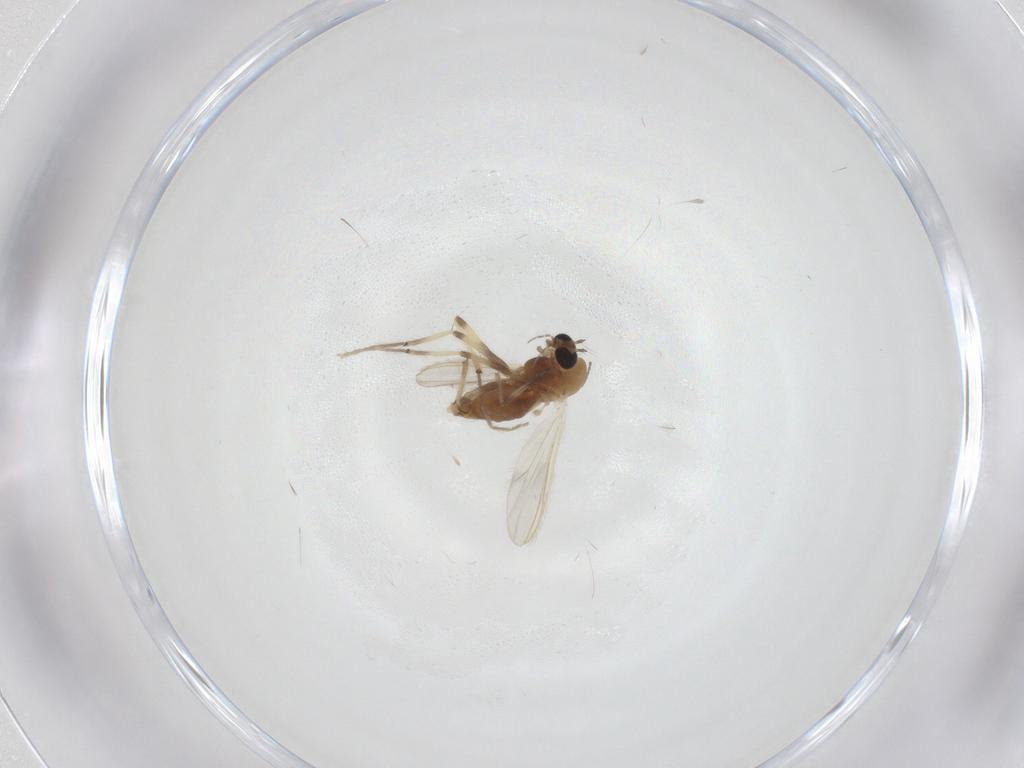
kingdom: Animalia
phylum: Arthropoda
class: Insecta
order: Diptera
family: Chironomidae
